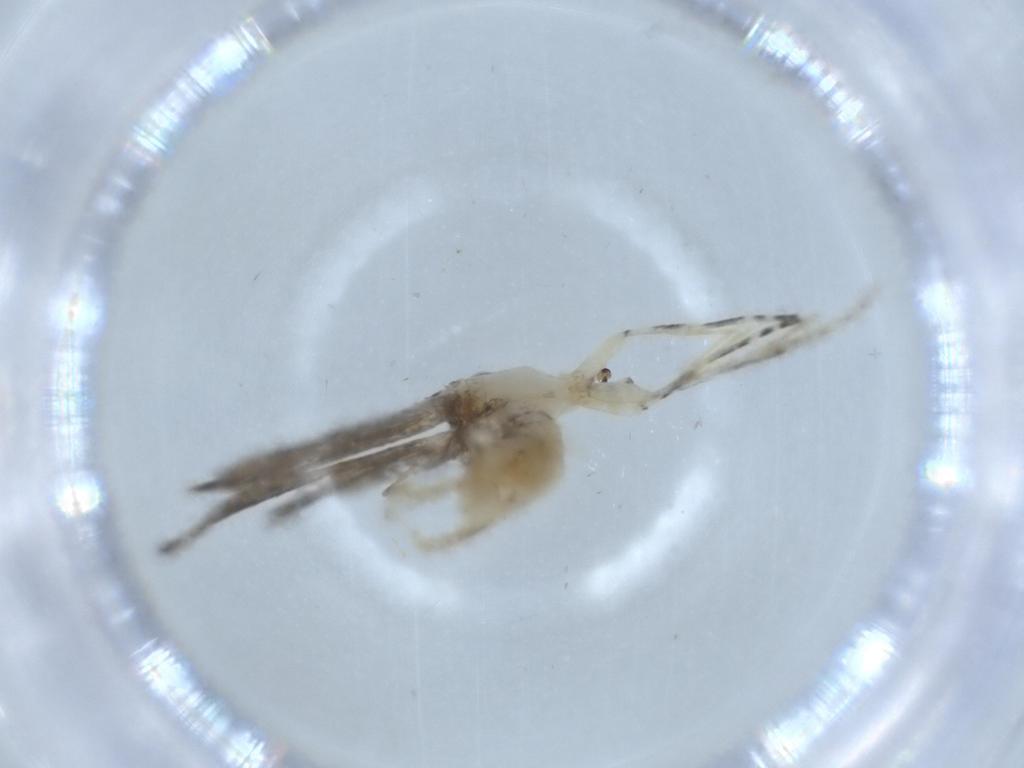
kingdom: Animalia
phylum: Arthropoda
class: Insecta
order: Lepidoptera
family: Tineidae
